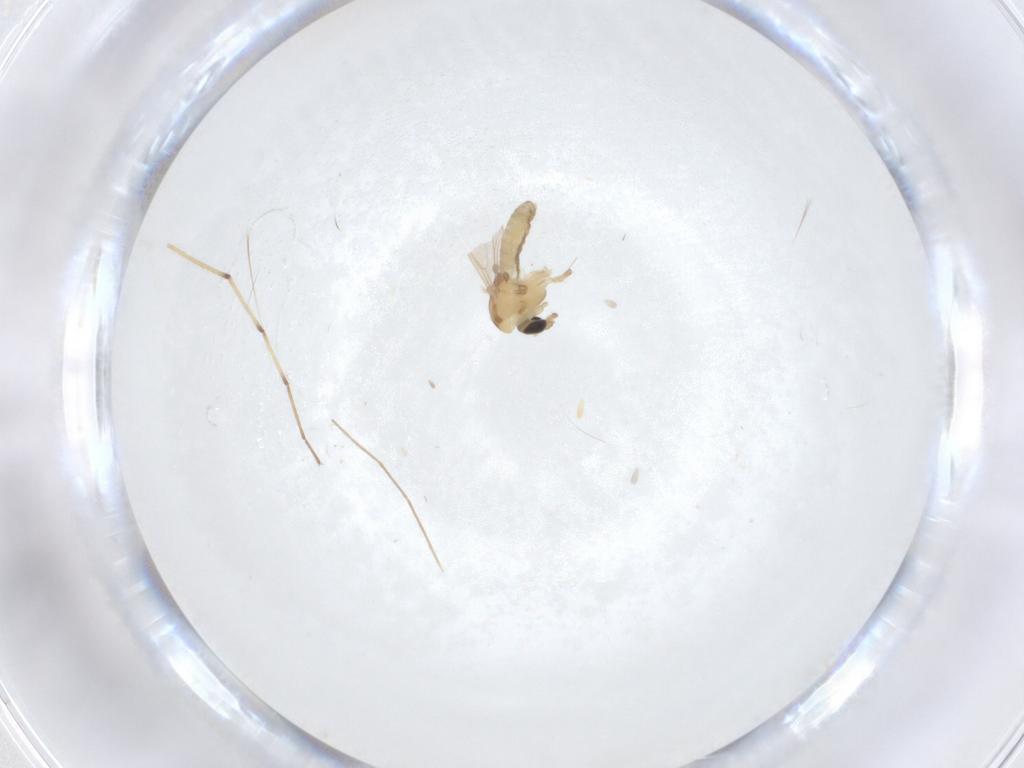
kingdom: Animalia
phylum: Arthropoda
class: Insecta
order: Diptera
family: Chironomidae
